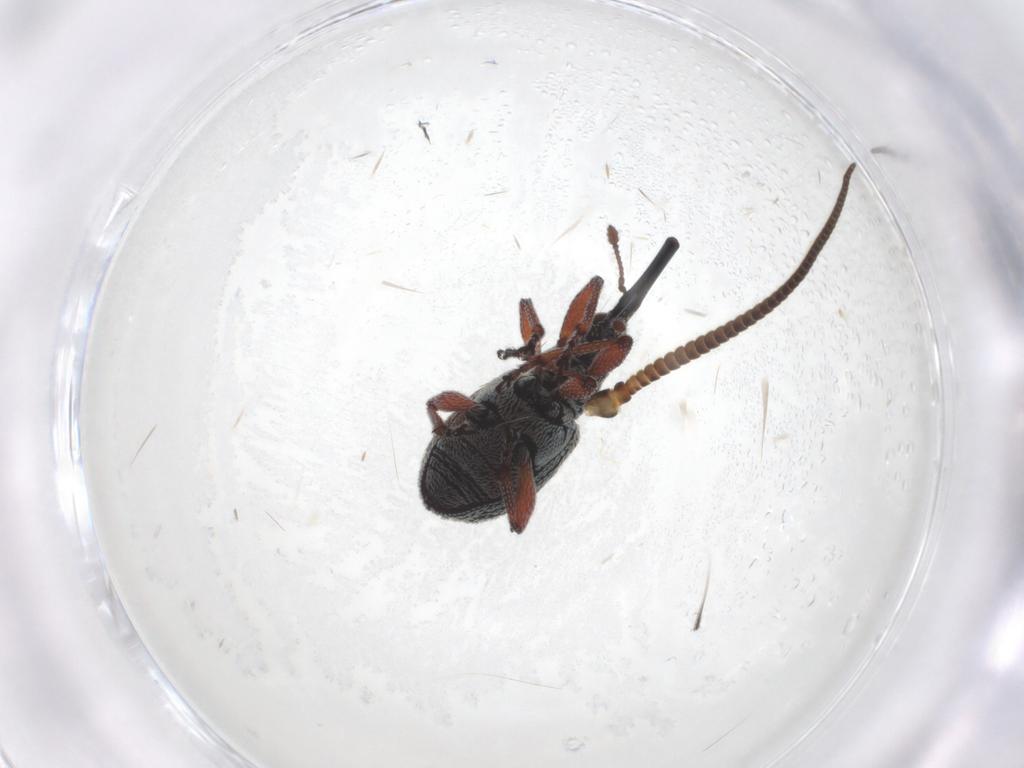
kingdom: Animalia
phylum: Arthropoda
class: Insecta
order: Coleoptera
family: Brentidae
